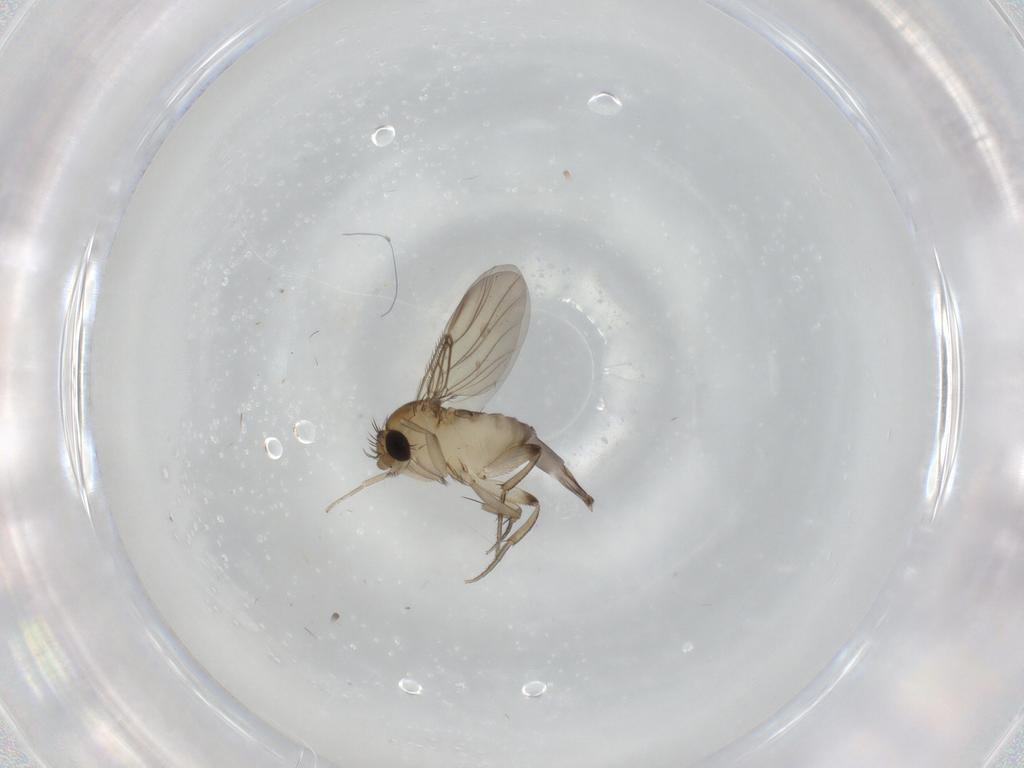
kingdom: Animalia
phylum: Arthropoda
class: Insecta
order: Diptera
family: Phoridae
